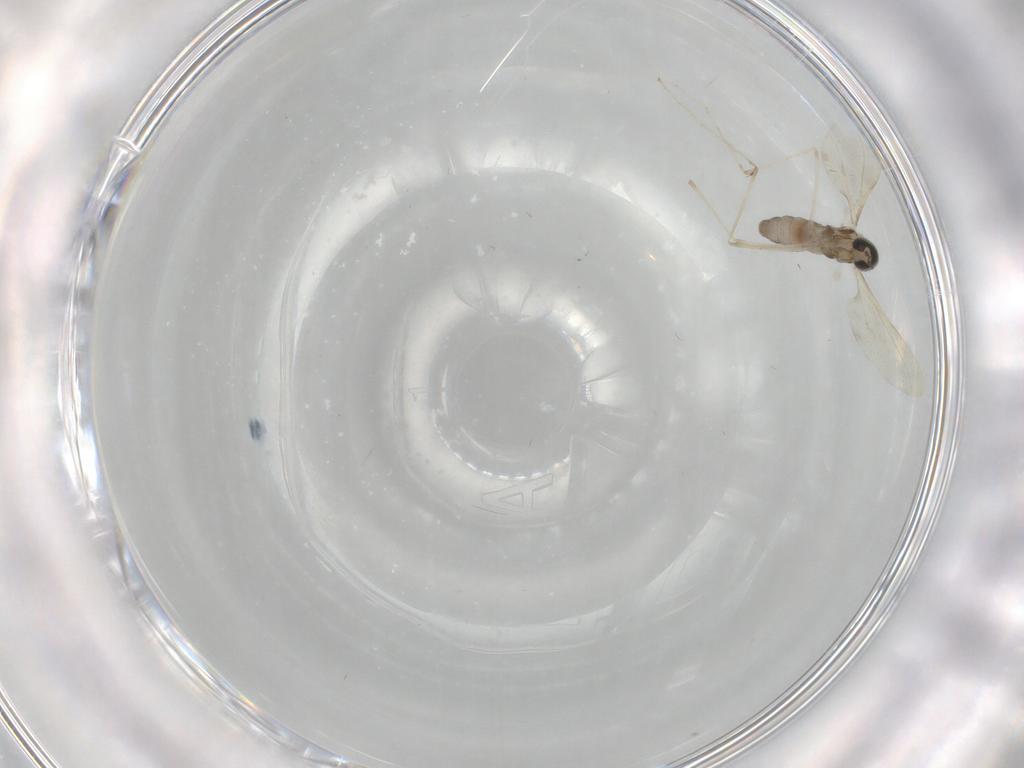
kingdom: Animalia
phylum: Arthropoda
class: Insecta
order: Diptera
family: Cecidomyiidae
